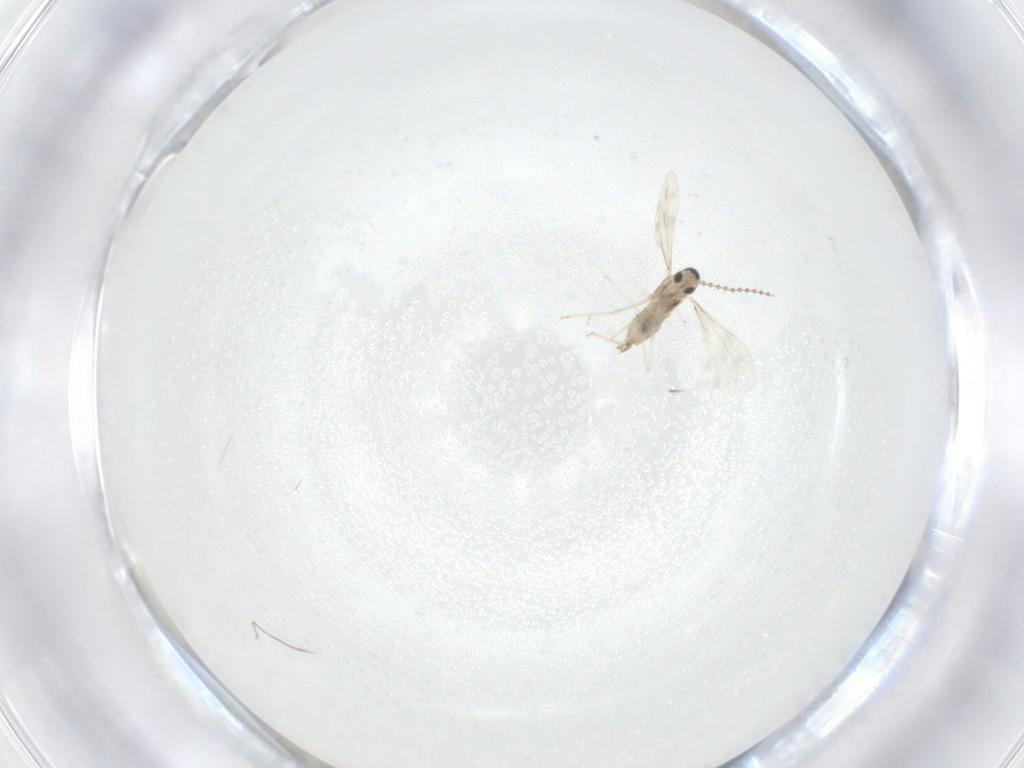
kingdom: Animalia
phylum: Arthropoda
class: Insecta
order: Diptera
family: Cecidomyiidae
